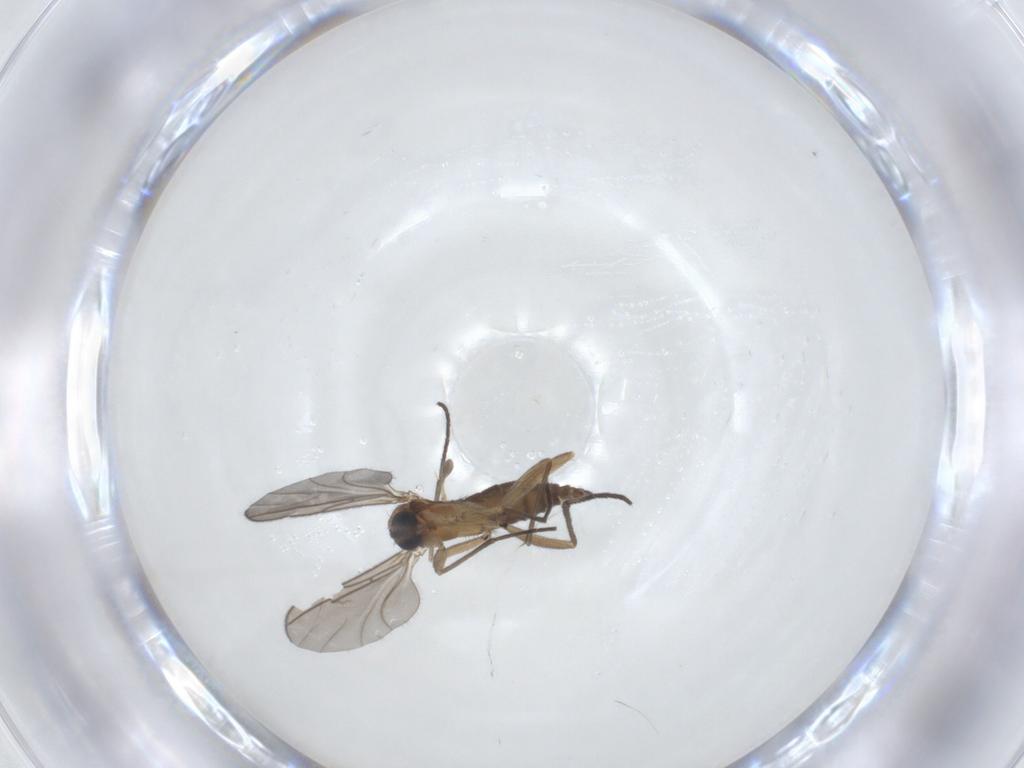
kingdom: Animalia
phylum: Arthropoda
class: Insecta
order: Diptera
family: Sciaridae
